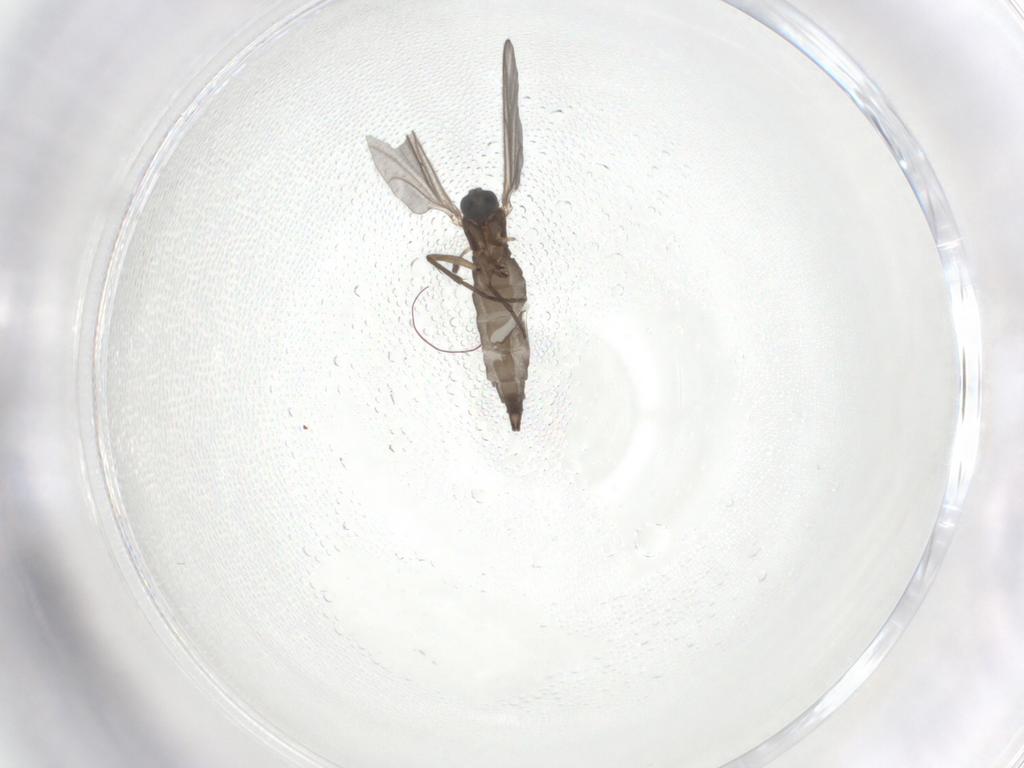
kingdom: Animalia
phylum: Arthropoda
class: Insecta
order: Diptera
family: Sciaridae
